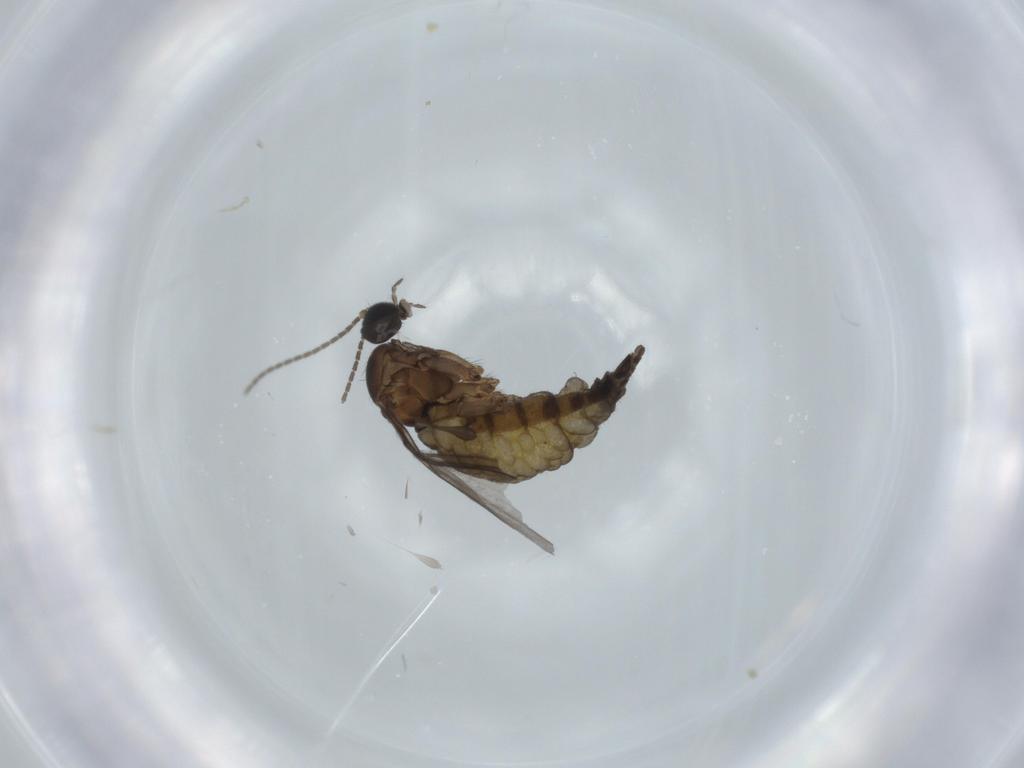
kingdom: Animalia
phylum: Arthropoda
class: Insecta
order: Diptera
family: Sciaridae
